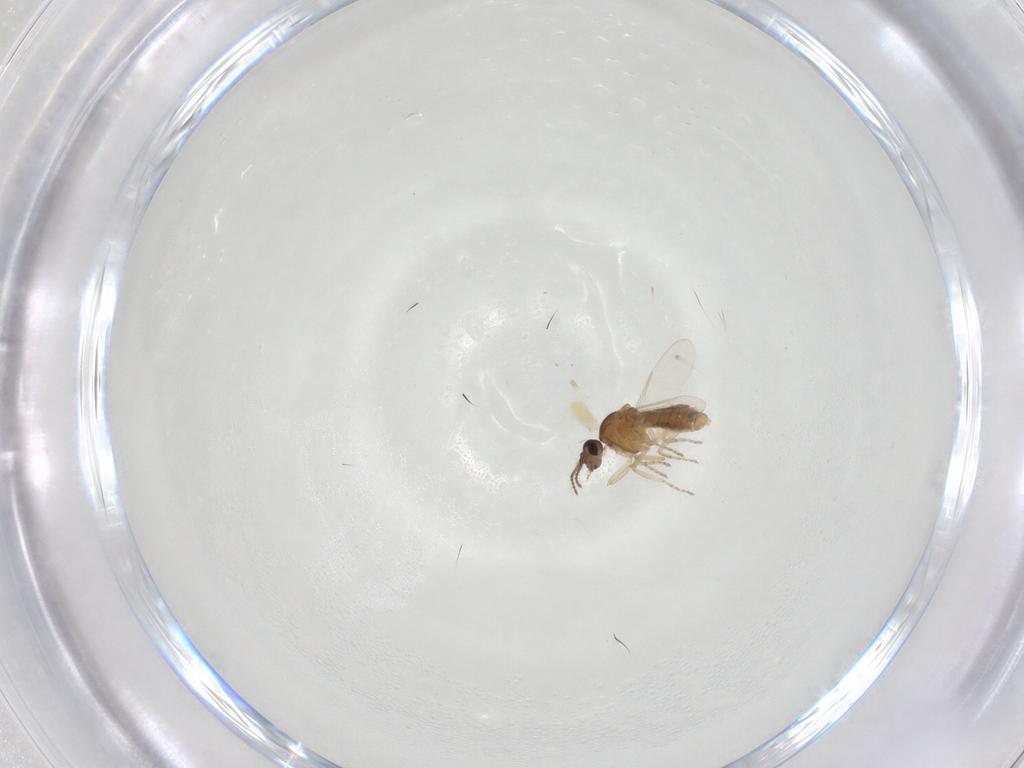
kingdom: Animalia
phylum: Arthropoda
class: Insecta
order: Diptera
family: Ceratopogonidae
